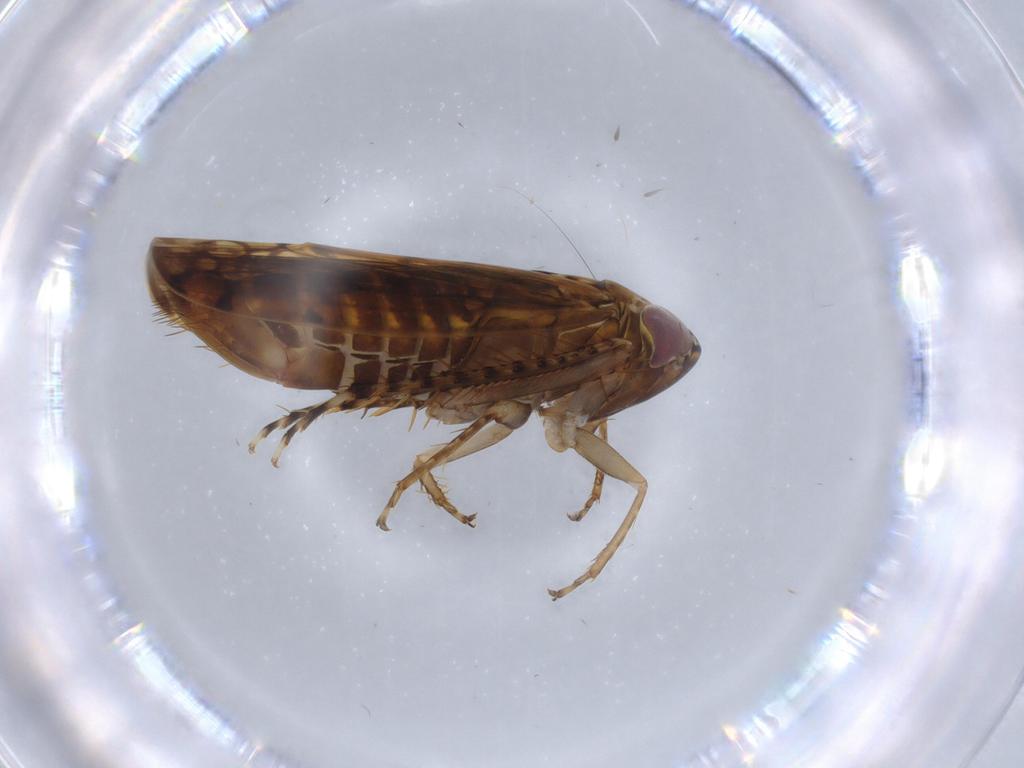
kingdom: Animalia
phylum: Arthropoda
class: Insecta
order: Hemiptera
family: Cicadellidae
